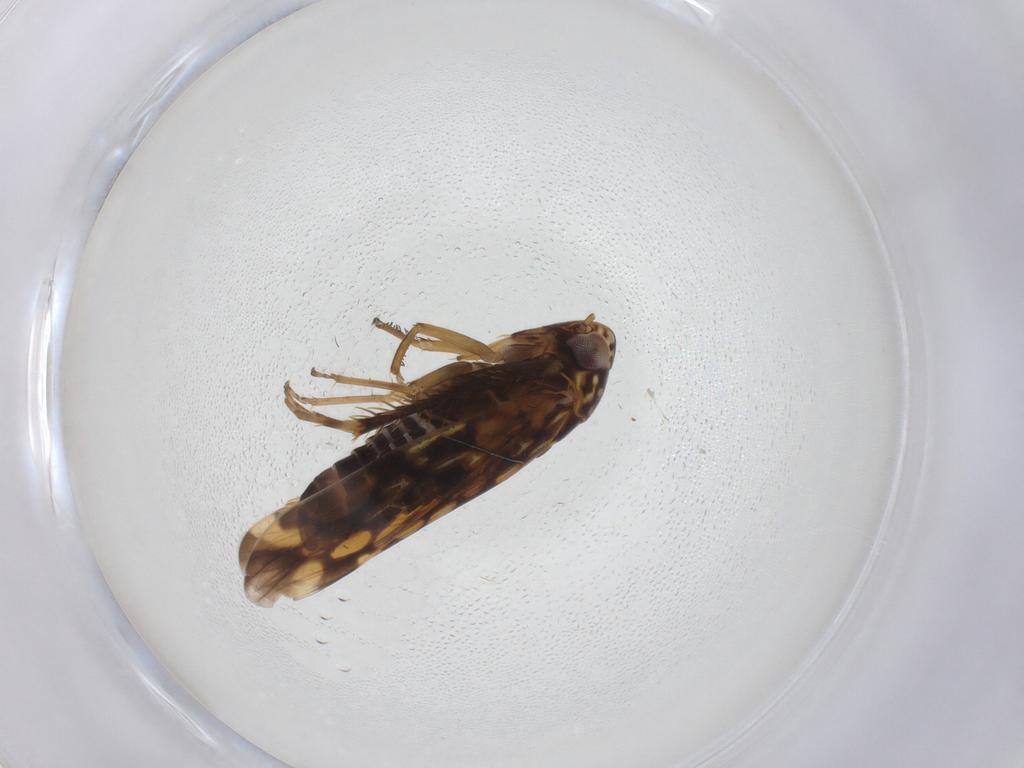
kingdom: Animalia
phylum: Arthropoda
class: Insecta
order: Hemiptera
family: Cicadellidae
